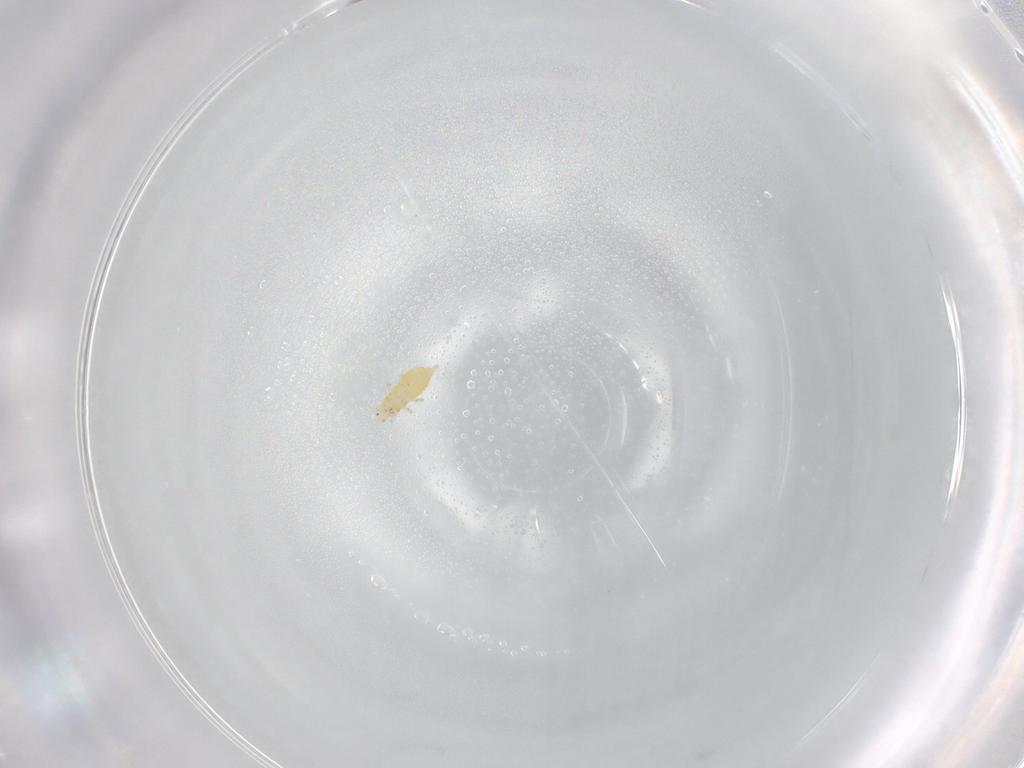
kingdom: Animalia
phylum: Arthropoda
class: Insecta
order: Thysanoptera
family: Thripidae
